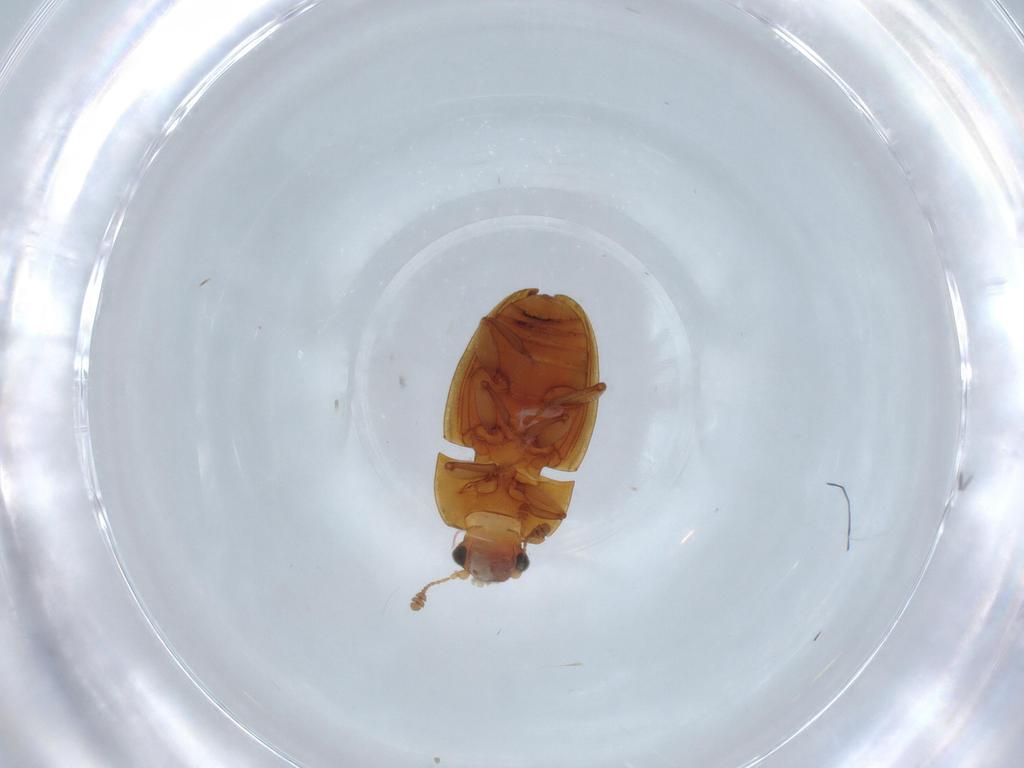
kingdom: Animalia
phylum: Arthropoda
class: Insecta
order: Coleoptera
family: Nitidulidae
